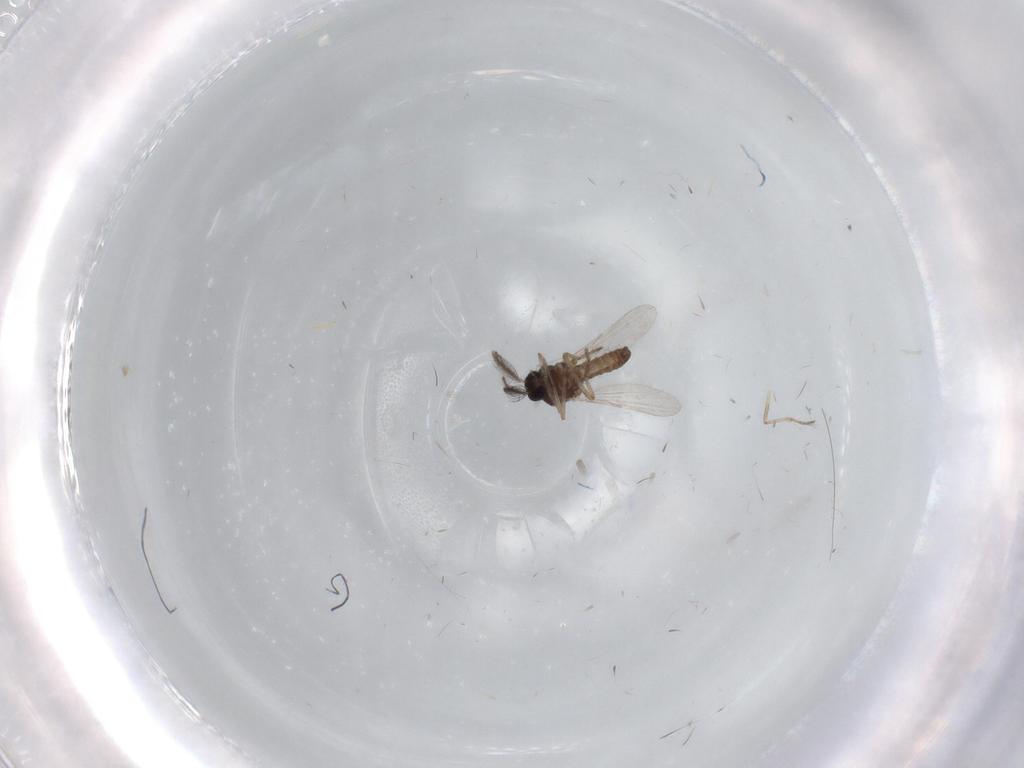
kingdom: Animalia
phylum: Arthropoda
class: Insecta
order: Diptera
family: Ceratopogonidae
